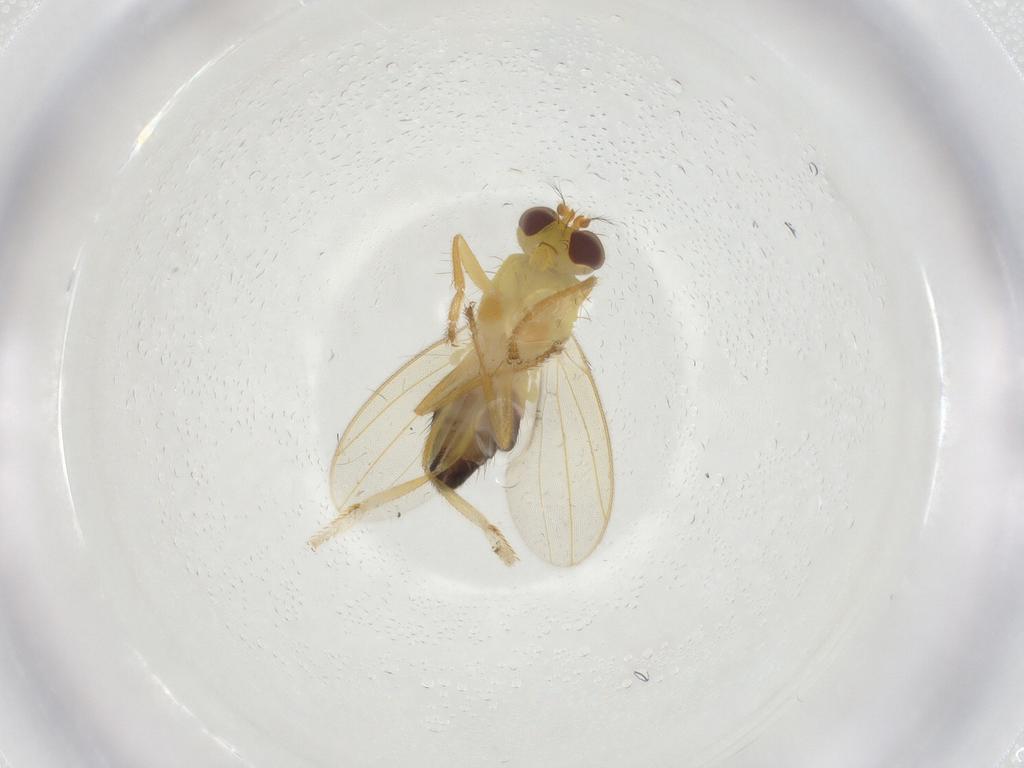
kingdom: Animalia
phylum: Arthropoda
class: Insecta
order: Diptera
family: Periscelididae
